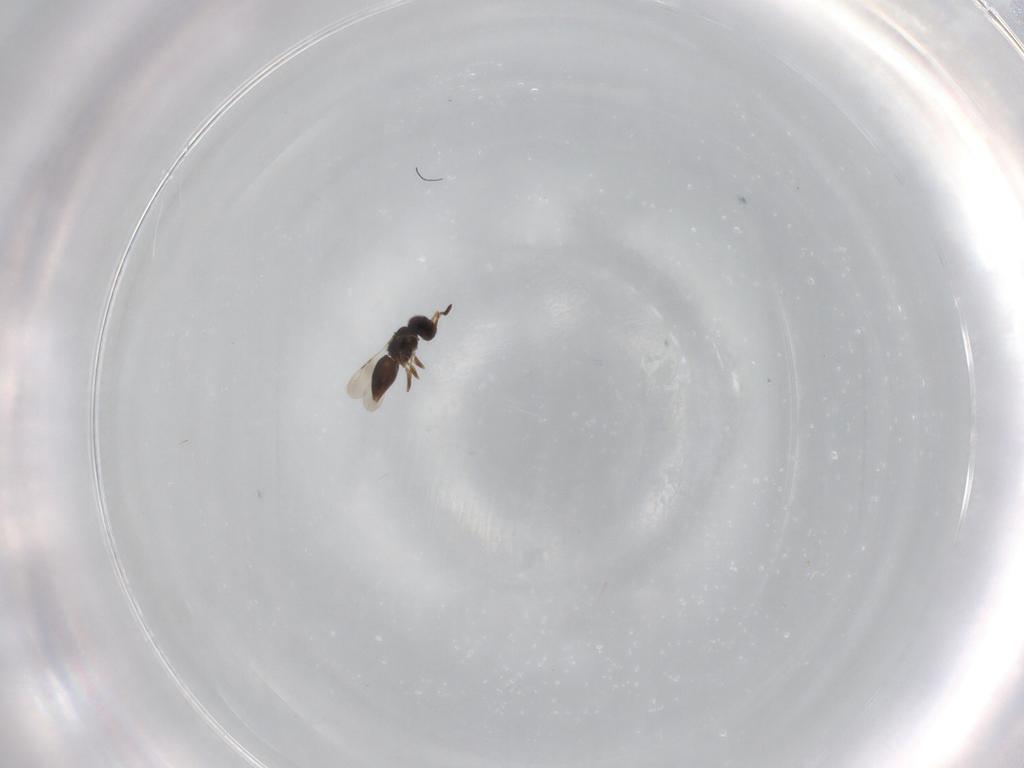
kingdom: Animalia
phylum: Arthropoda
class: Insecta
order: Hymenoptera
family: Ceraphronidae
